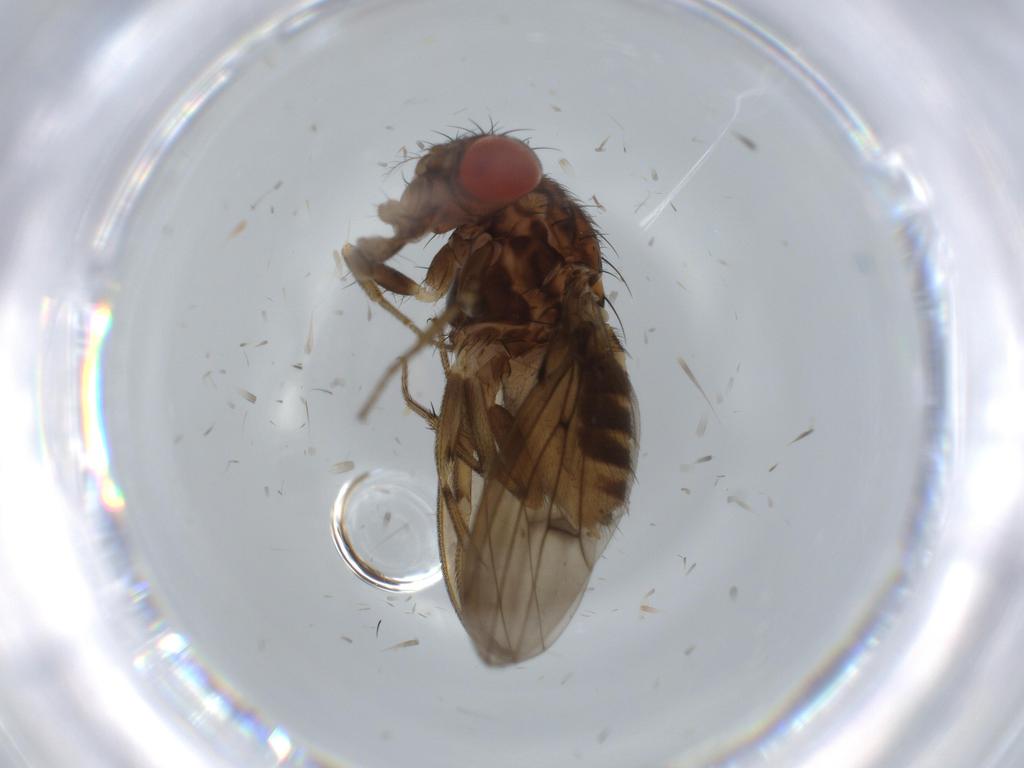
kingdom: Animalia
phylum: Arthropoda
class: Insecta
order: Diptera
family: Drosophilidae
